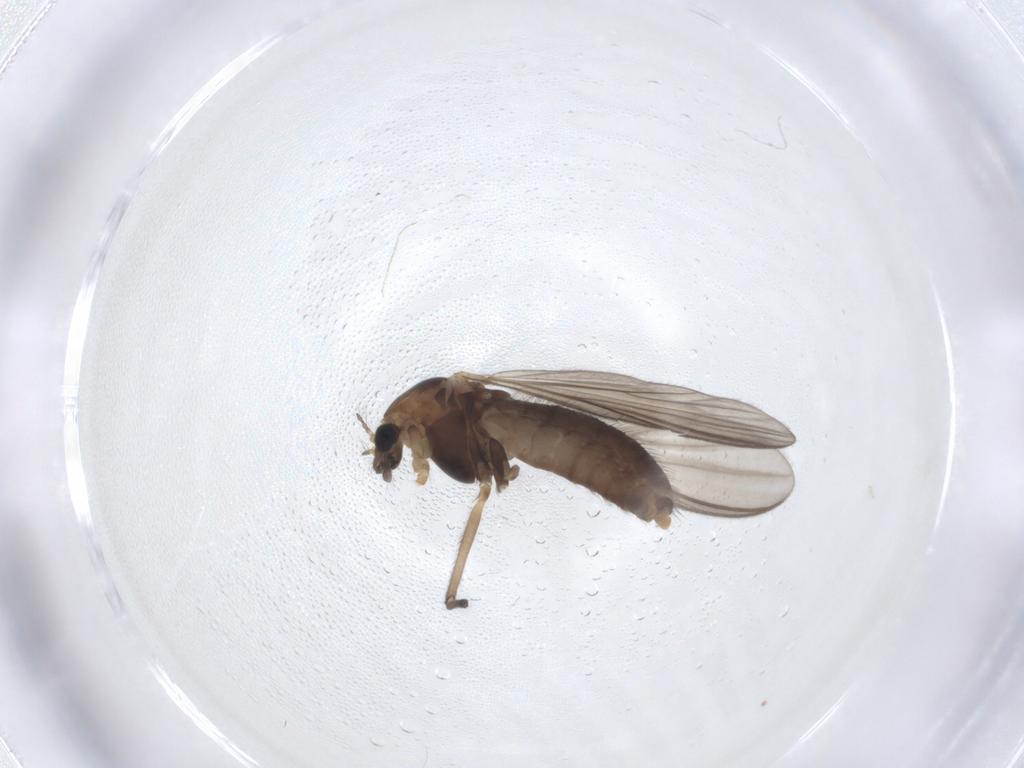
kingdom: Animalia
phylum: Arthropoda
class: Insecta
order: Diptera
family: Chironomidae
